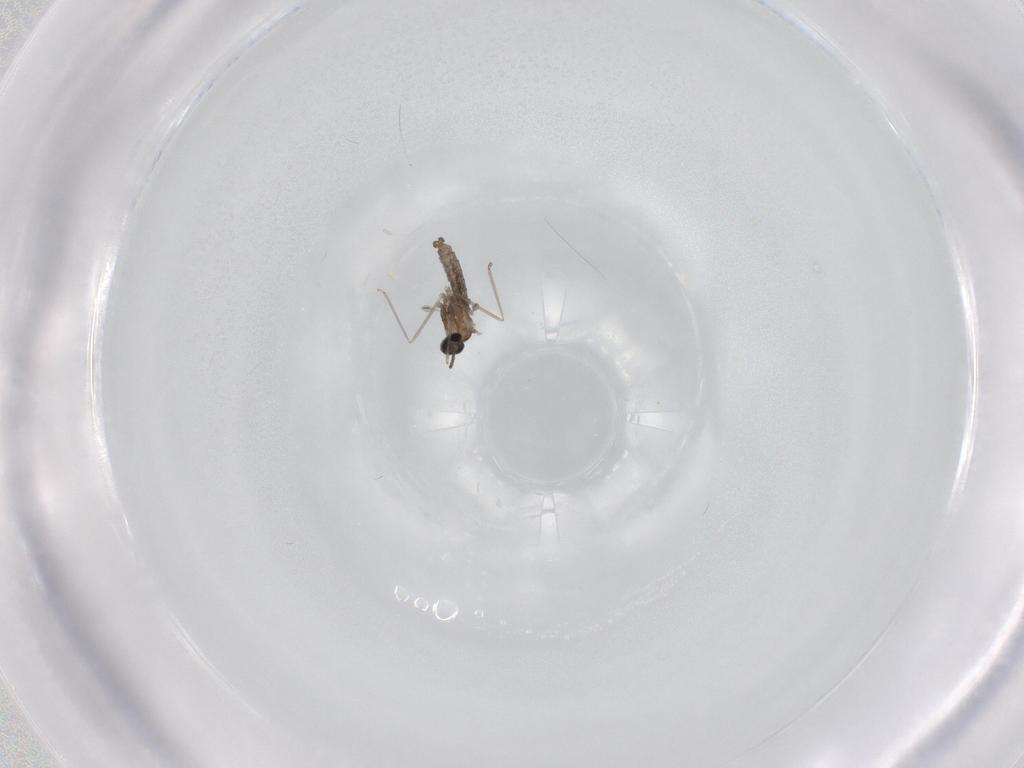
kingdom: Animalia
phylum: Arthropoda
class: Insecta
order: Diptera
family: Cecidomyiidae
